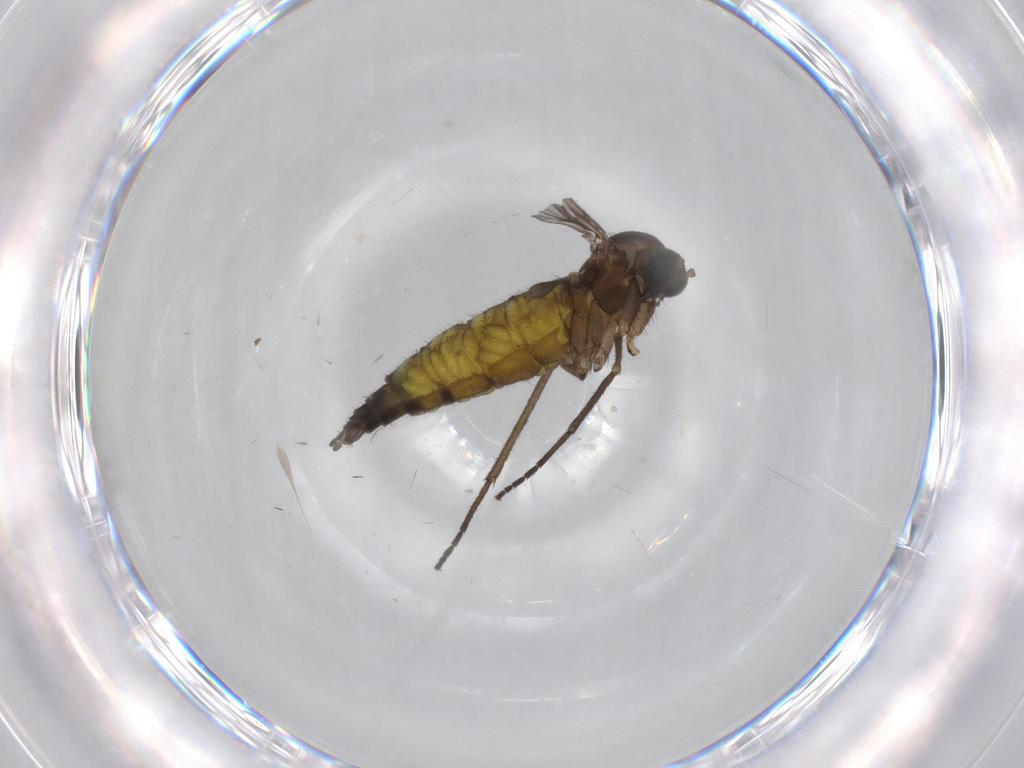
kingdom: Animalia
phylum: Arthropoda
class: Insecta
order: Diptera
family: Sciaridae
